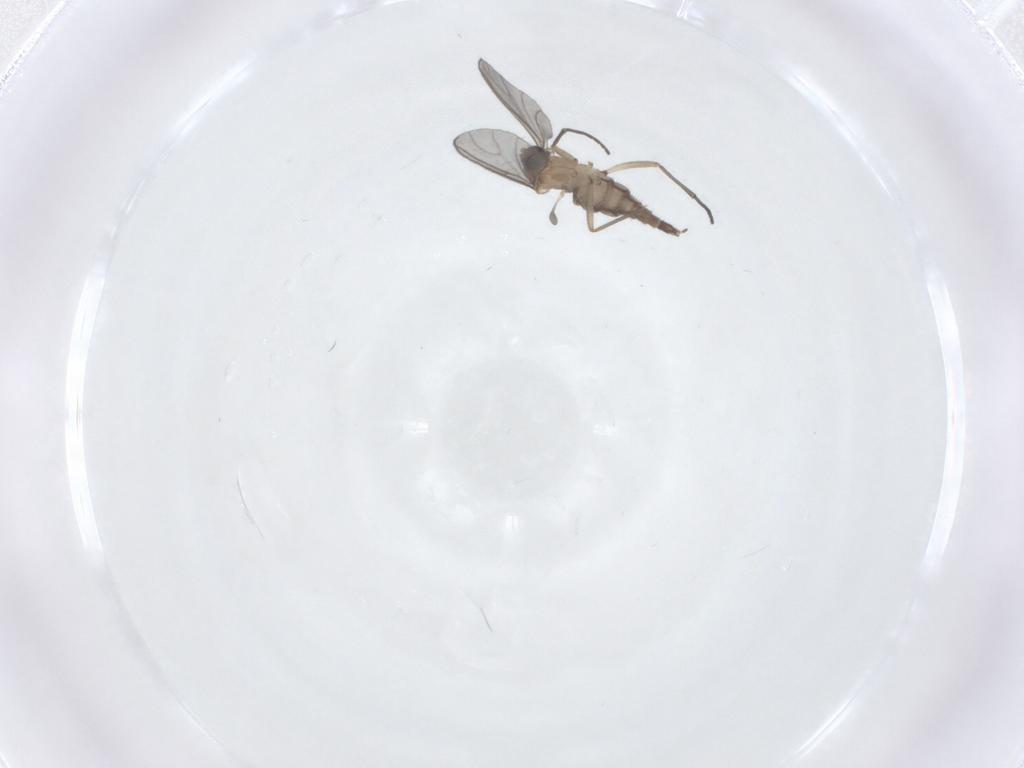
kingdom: Animalia
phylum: Arthropoda
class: Insecta
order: Diptera
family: Sciaridae
